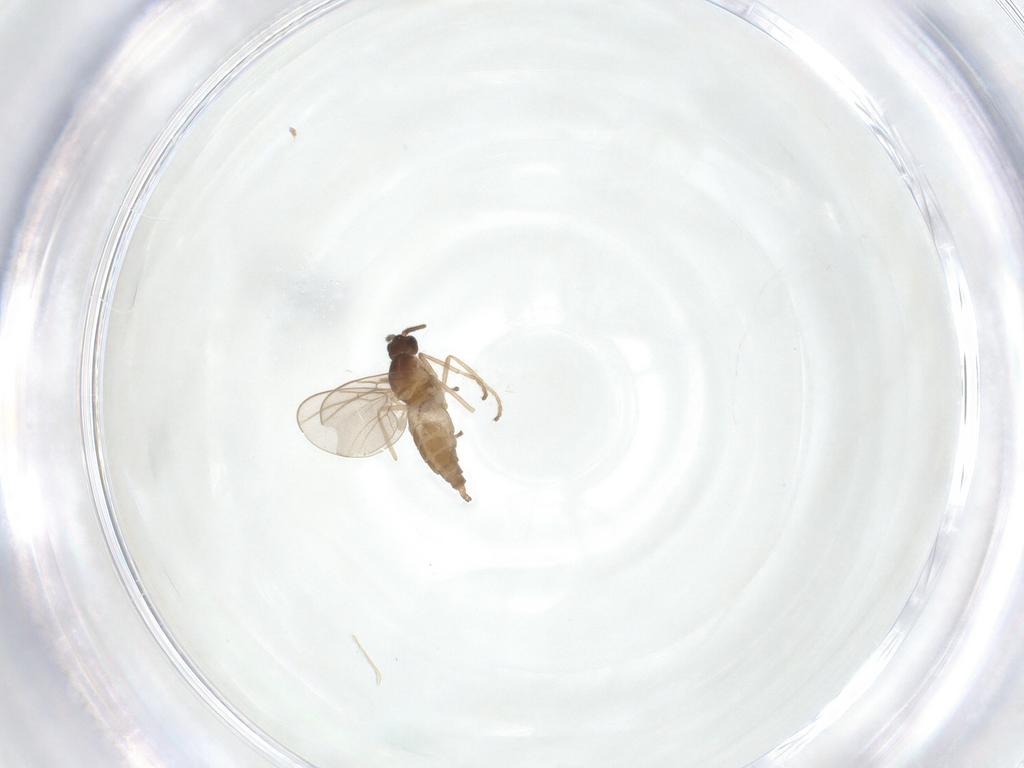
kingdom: Animalia
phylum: Arthropoda
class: Insecta
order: Diptera
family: Cecidomyiidae
